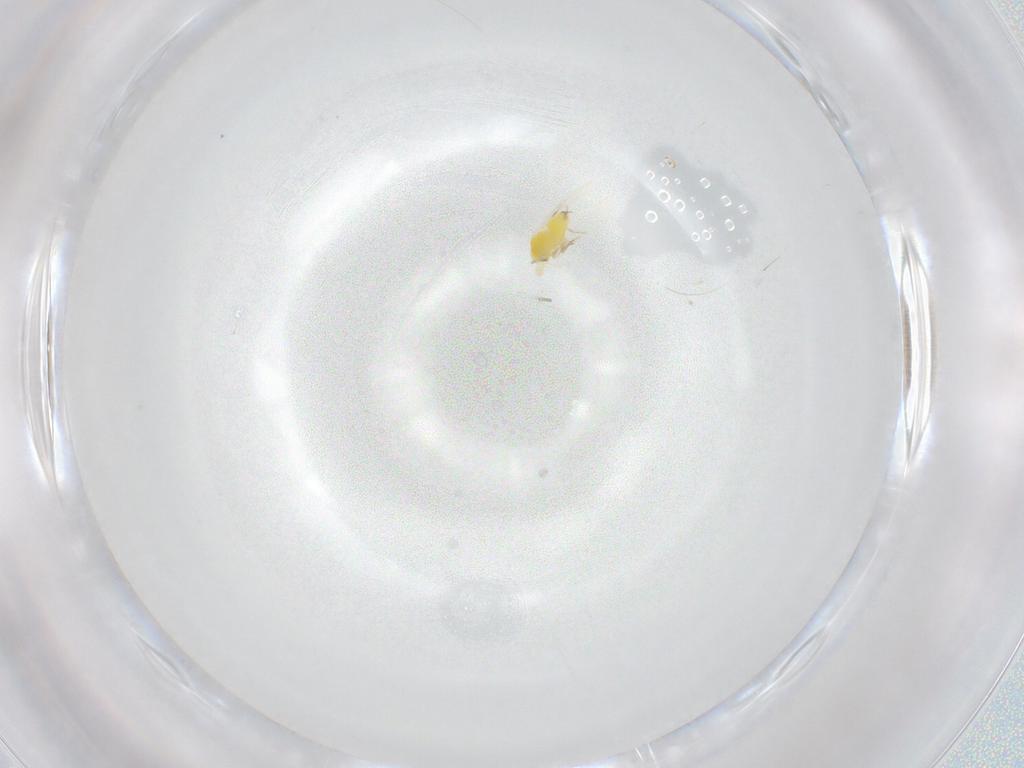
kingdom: Animalia
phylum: Arthropoda
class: Insecta
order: Hemiptera
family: Aleyrodidae
